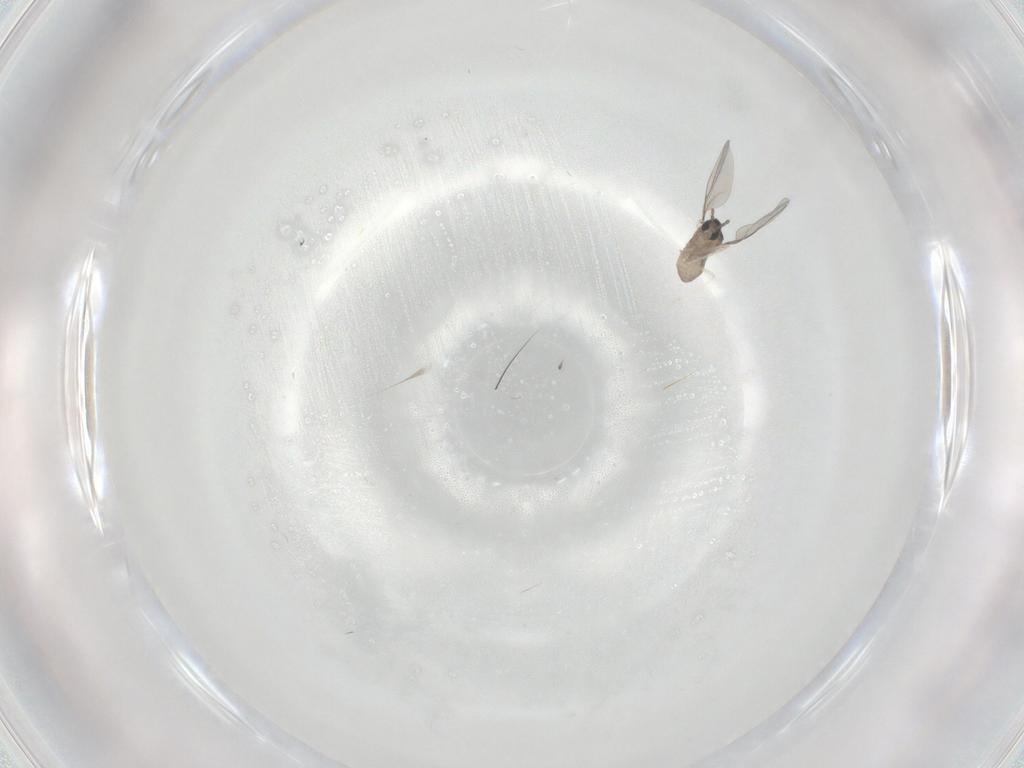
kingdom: Animalia
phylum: Arthropoda
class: Insecta
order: Diptera
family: Cecidomyiidae
